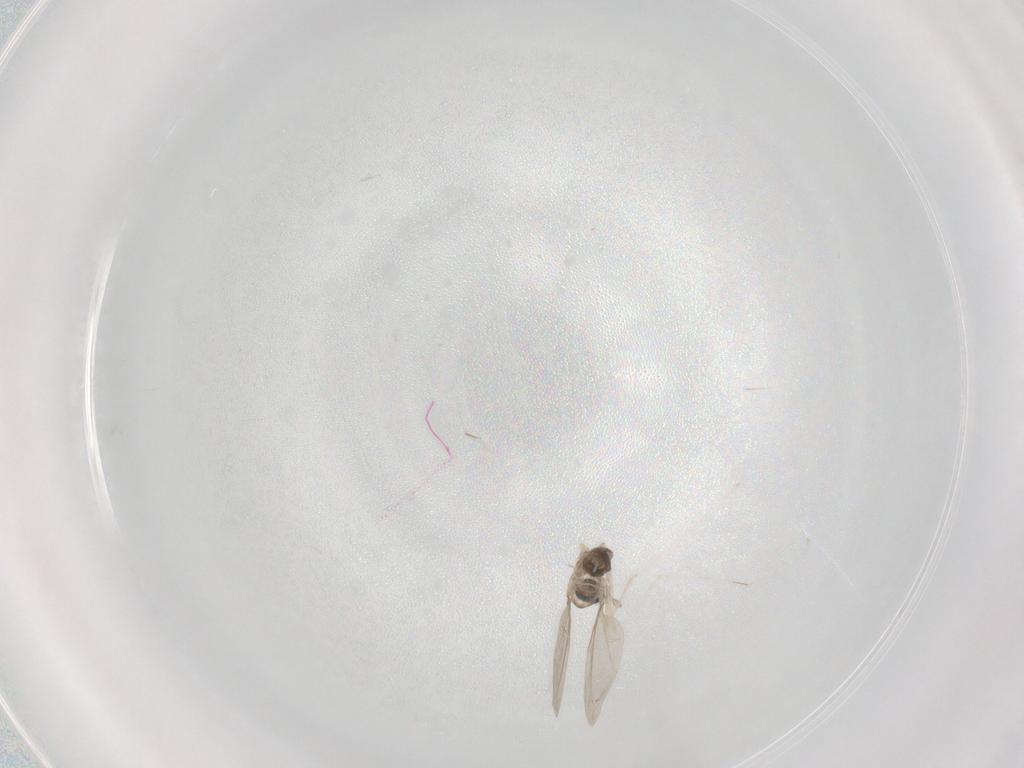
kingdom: Animalia
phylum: Arthropoda
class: Insecta
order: Diptera
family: Cecidomyiidae
